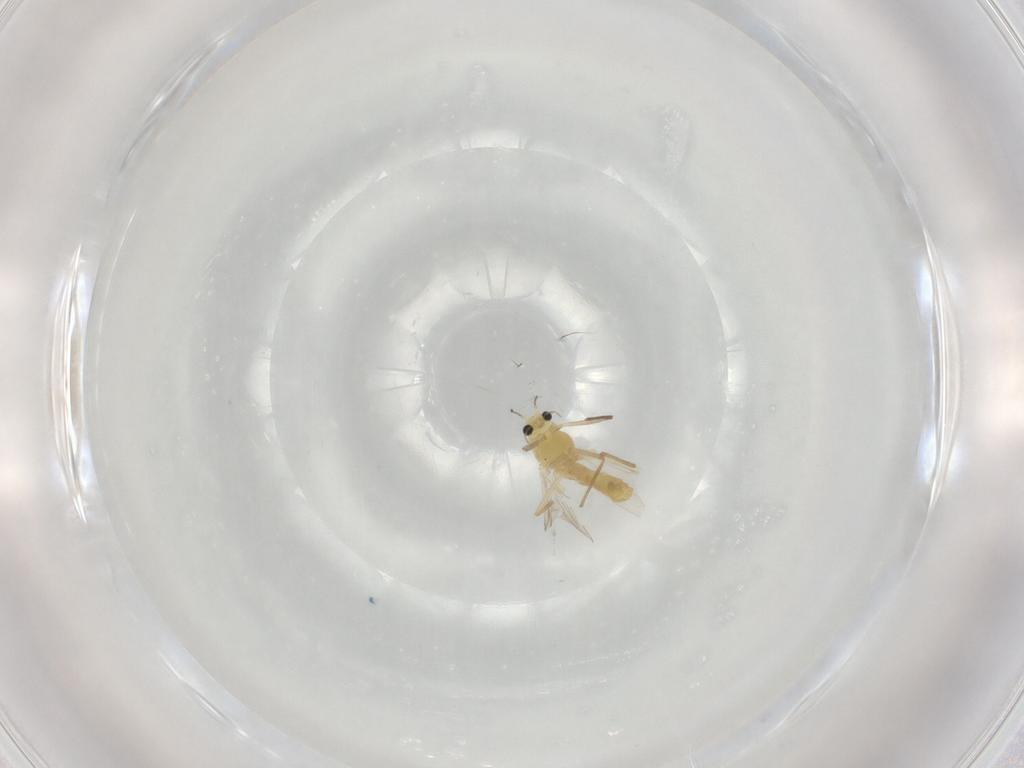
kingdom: Animalia
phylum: Arthropoda
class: Insecta
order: Diptera
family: Chironomidae
